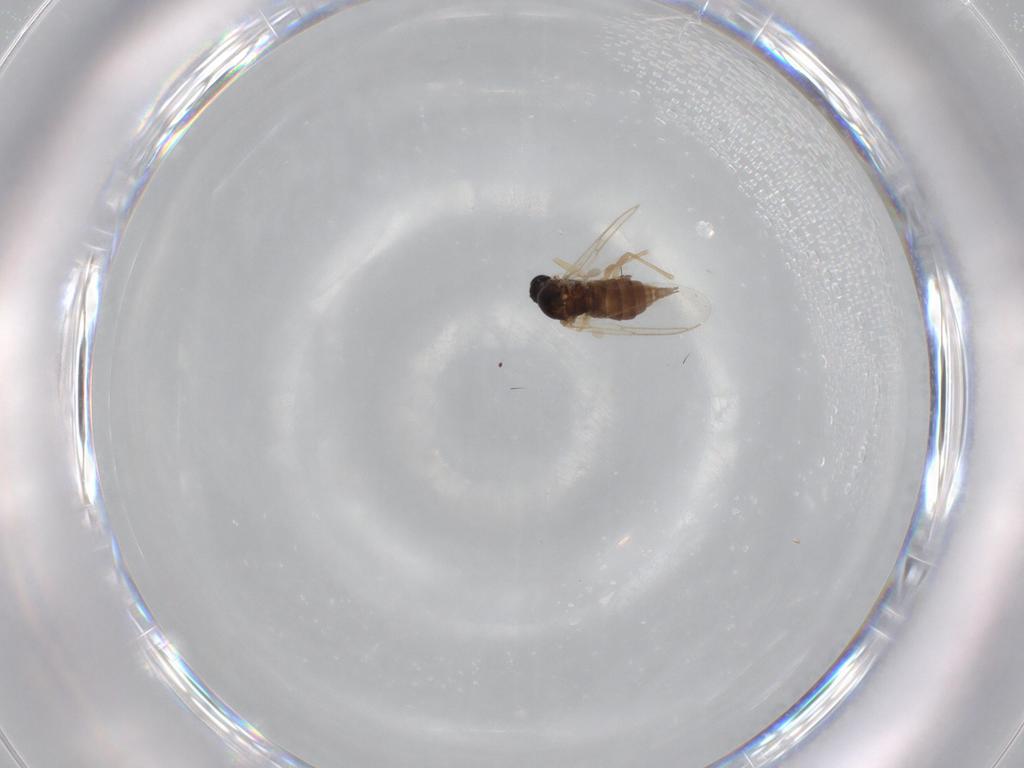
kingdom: Animalia
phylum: Arthropoda
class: Insecta
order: Diptera
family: Sciaridae
